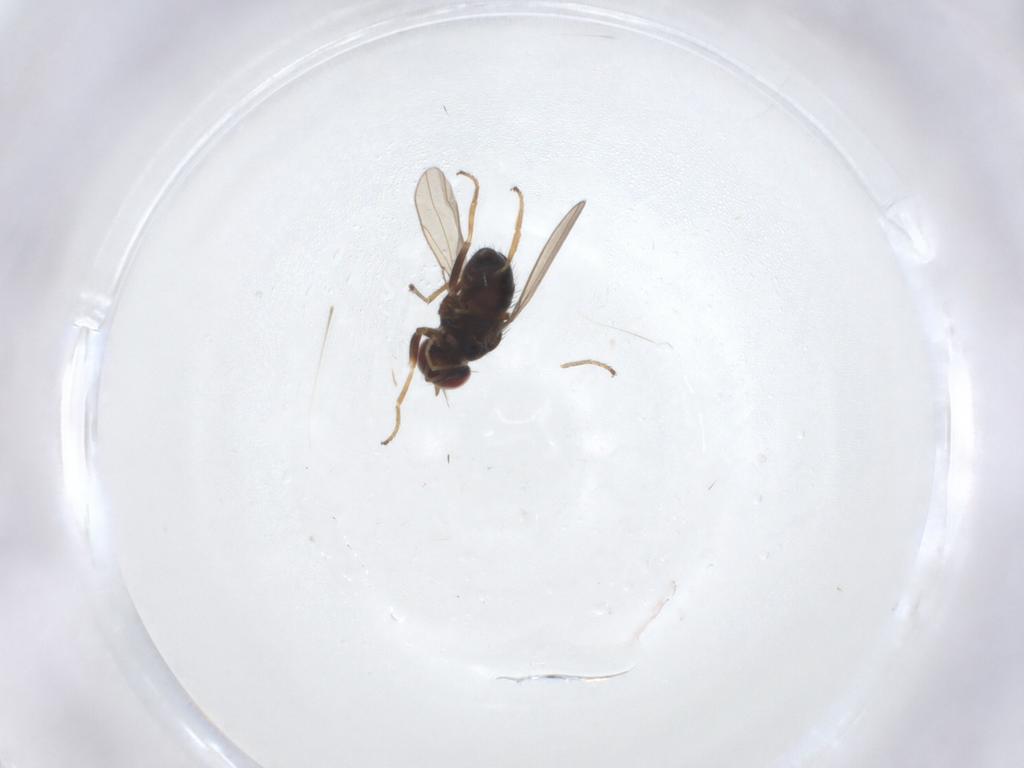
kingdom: Animalia
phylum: Arthropoda
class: Insecta
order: Diptera
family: Ephydridae
